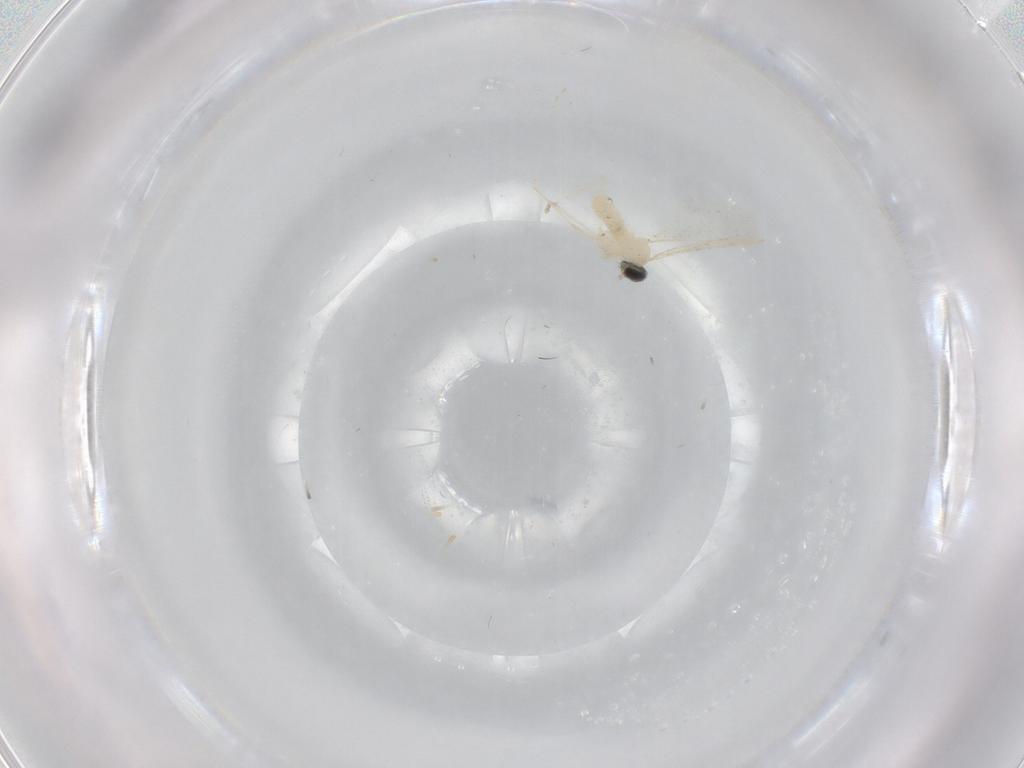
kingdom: Animalia
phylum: Arthropoda
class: Insecta
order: Diptera
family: Cecidomyiidae
